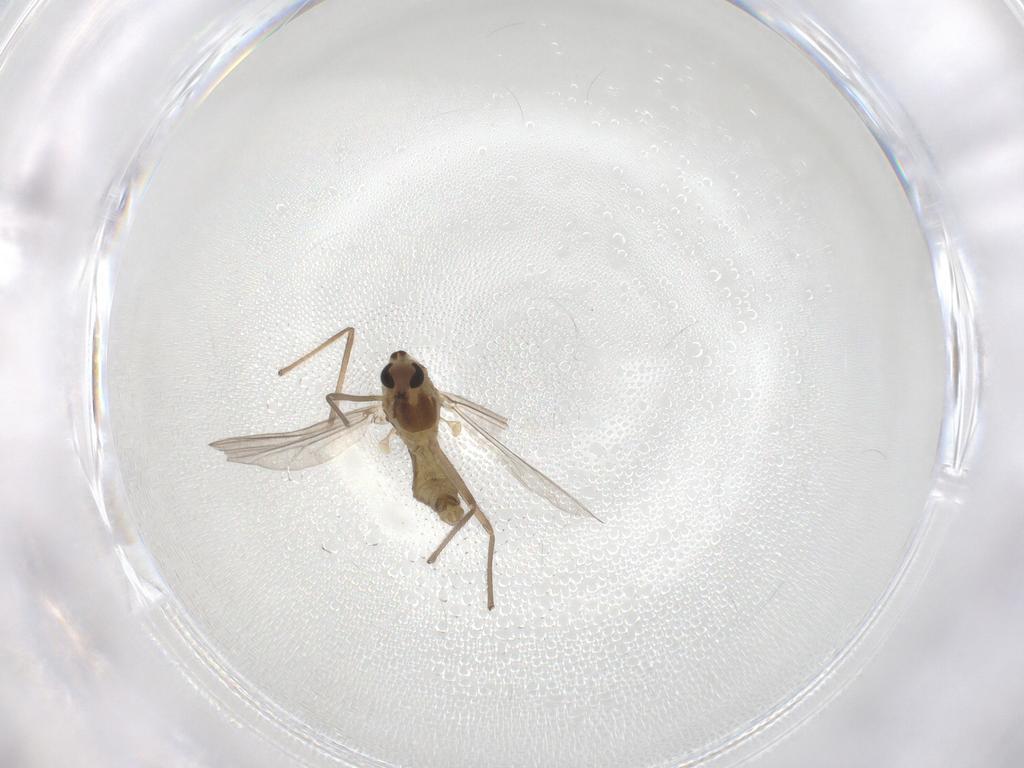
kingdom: Animalia
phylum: Arthropoda
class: Insecta
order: Diptera
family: Chironomidae
